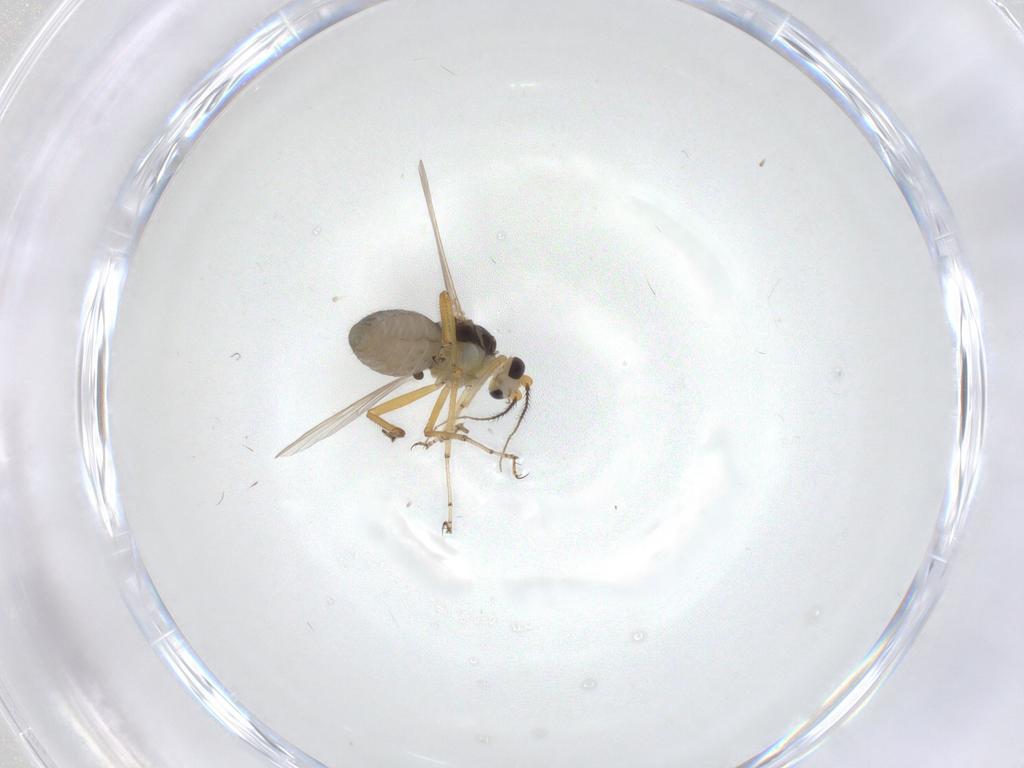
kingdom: Animalia
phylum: Arthropoda
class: Insecta
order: Diptera
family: Ceratopogonidae
